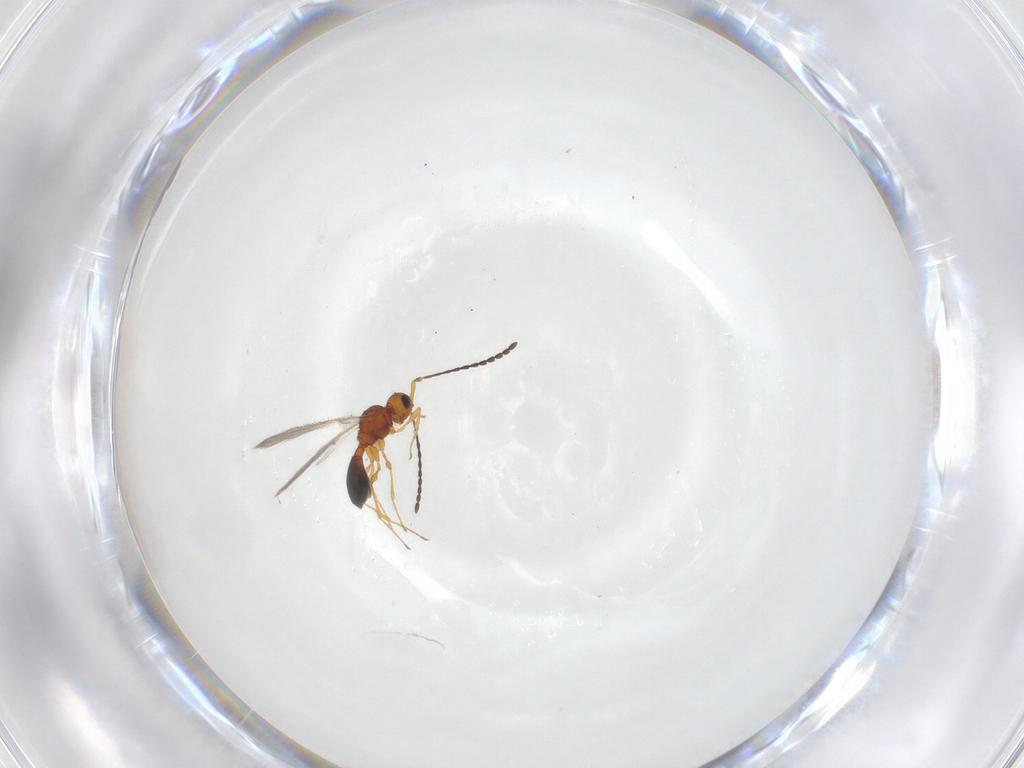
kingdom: Animalia
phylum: Arthropoda
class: Insecta
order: Hymenoptera
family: Diapriidae
